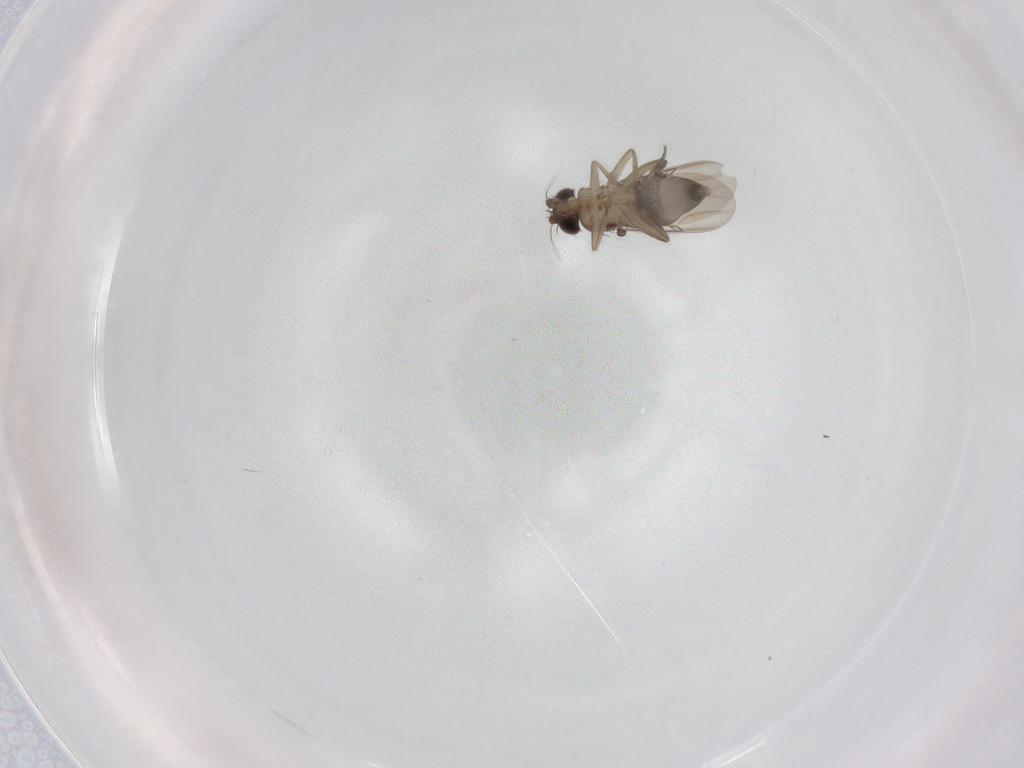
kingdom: Animalia
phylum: Arthropoda
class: Insecta
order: Diptera
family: Phoridae
